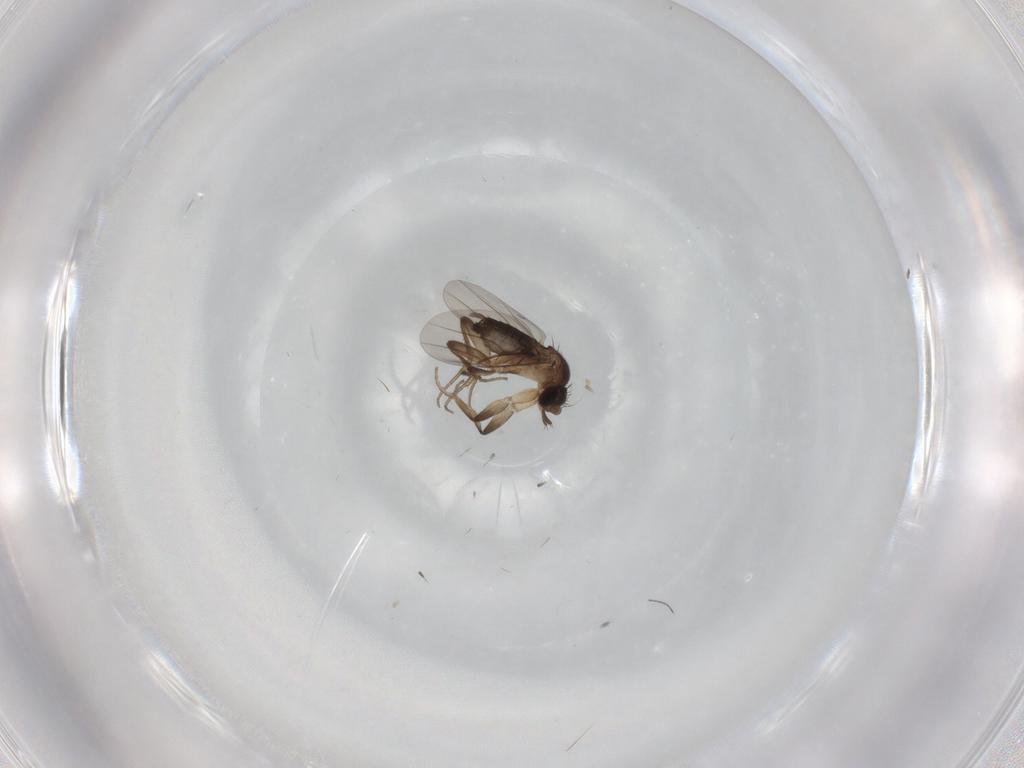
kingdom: Animalia
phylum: Arthropoda
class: Insecta
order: Diptera
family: Phoridae
